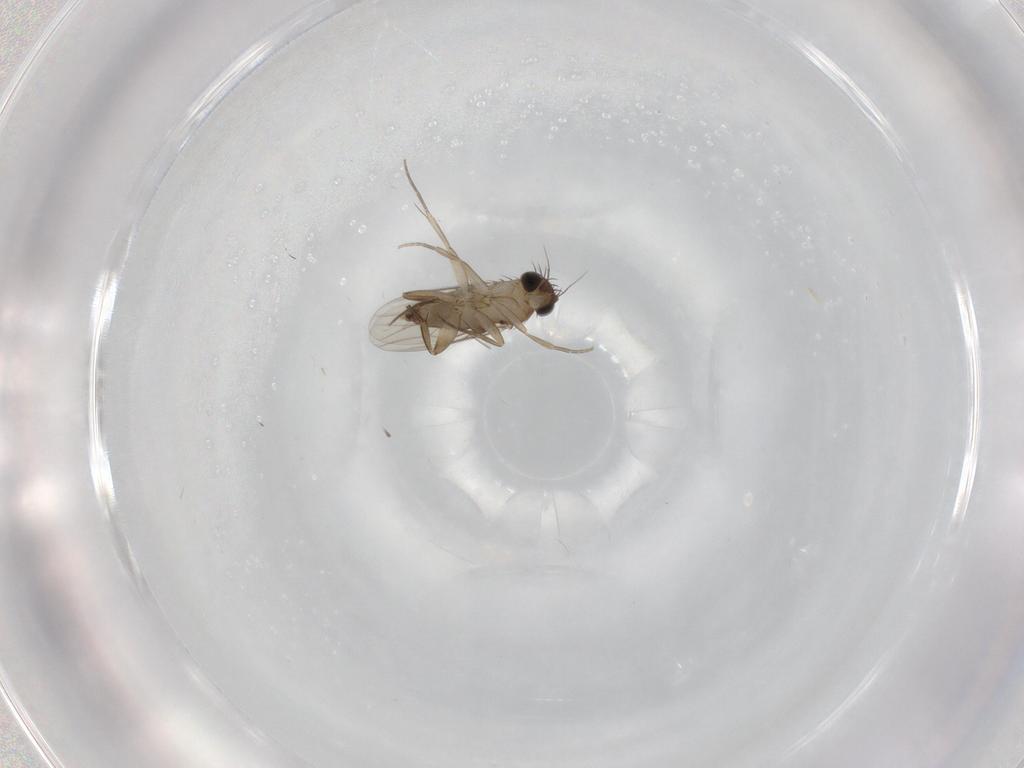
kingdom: Animalia
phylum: Arthropoda
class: Insecta
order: Diptera
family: Phoridae
